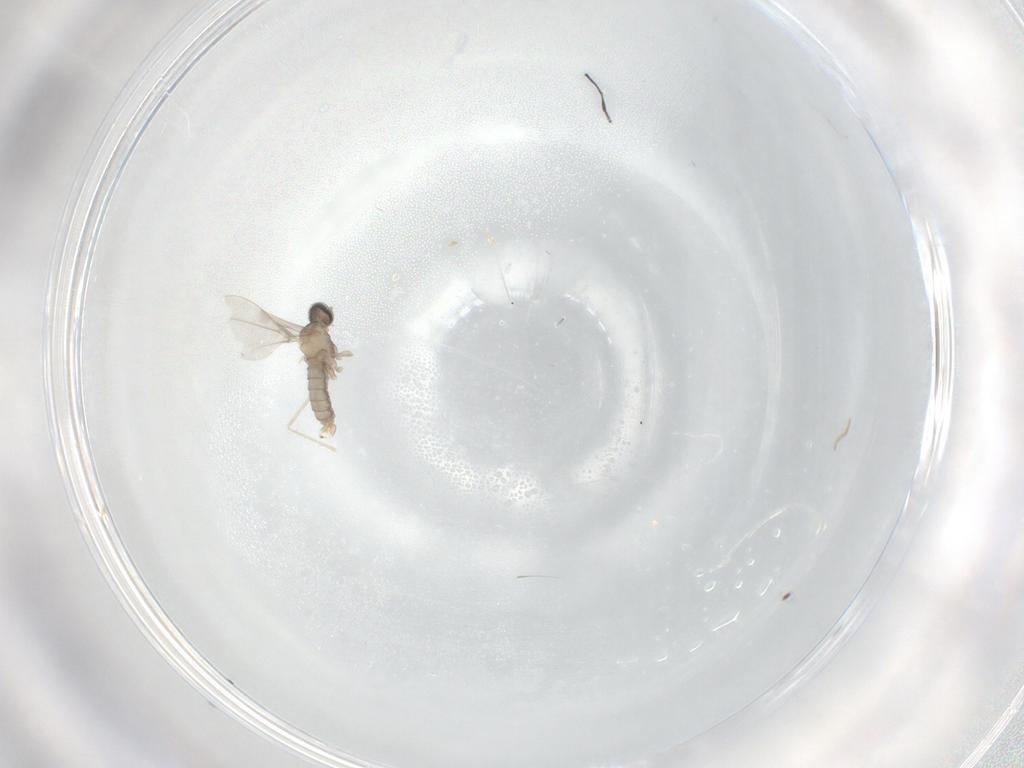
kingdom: Animalia
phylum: Arthropoda
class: Insecta
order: Diptera
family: Cecidomyiidae
